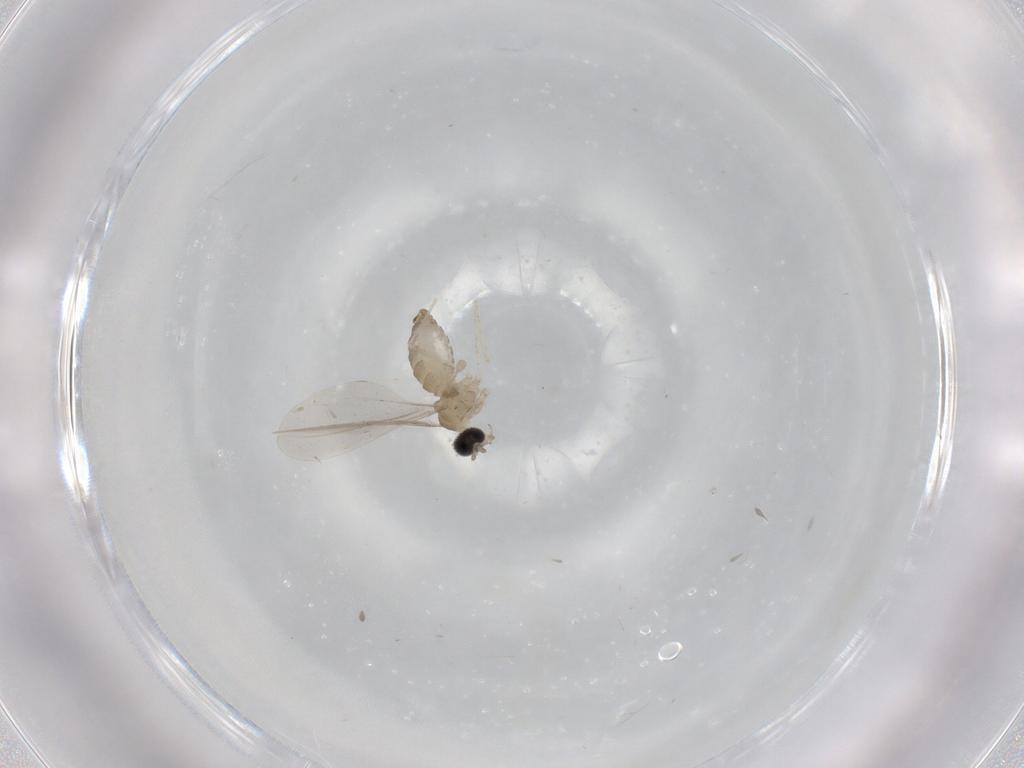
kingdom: Animalia
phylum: Arthropoda
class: Insecta
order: Diptera
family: Cecidomyiidae
